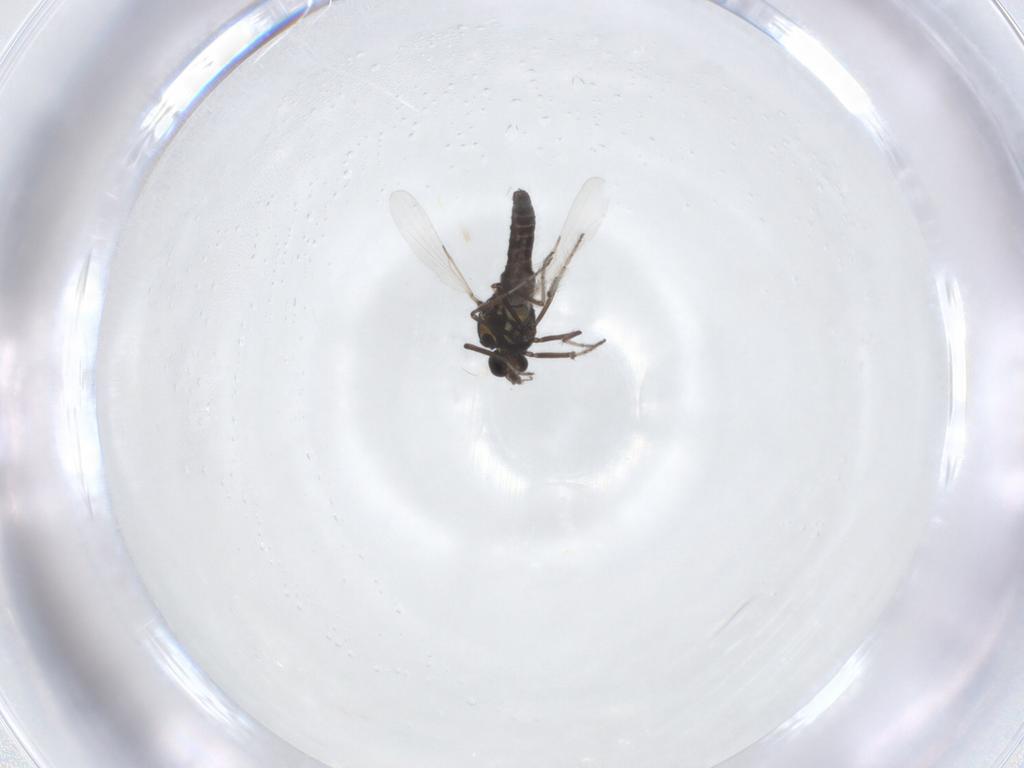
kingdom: Animalia
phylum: Arthropoda
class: Insecta
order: Diptera
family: Ceratopogonidae
